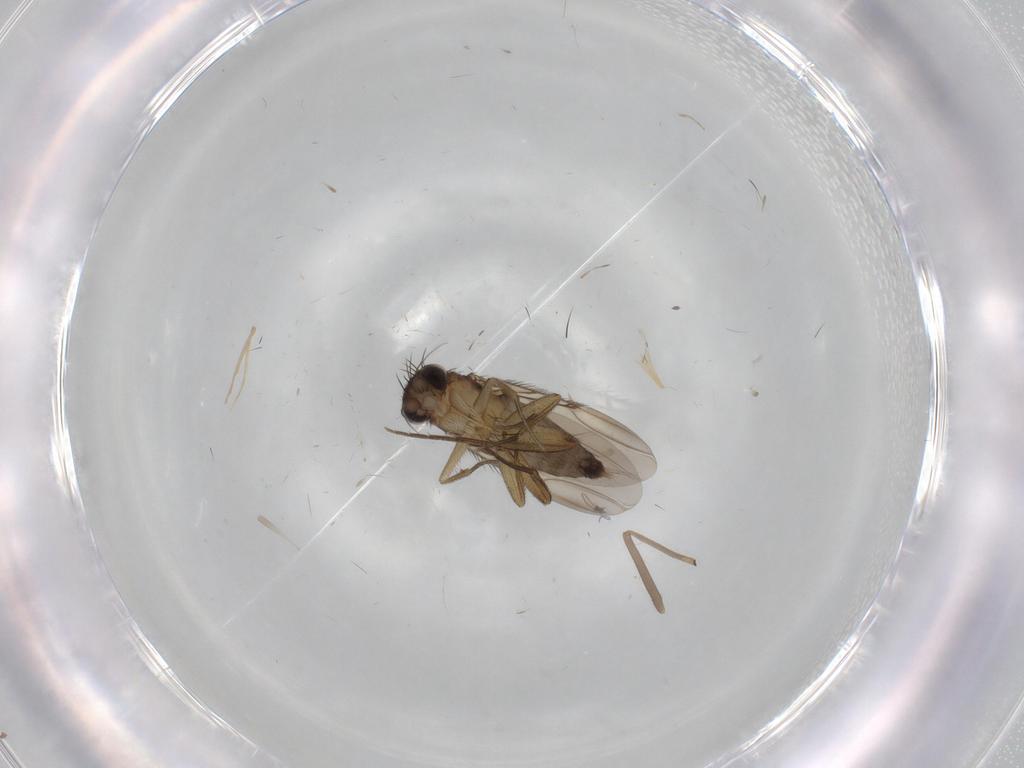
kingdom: Animalia
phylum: Arthropoda
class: Insecta
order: Diptera
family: Phoridae
